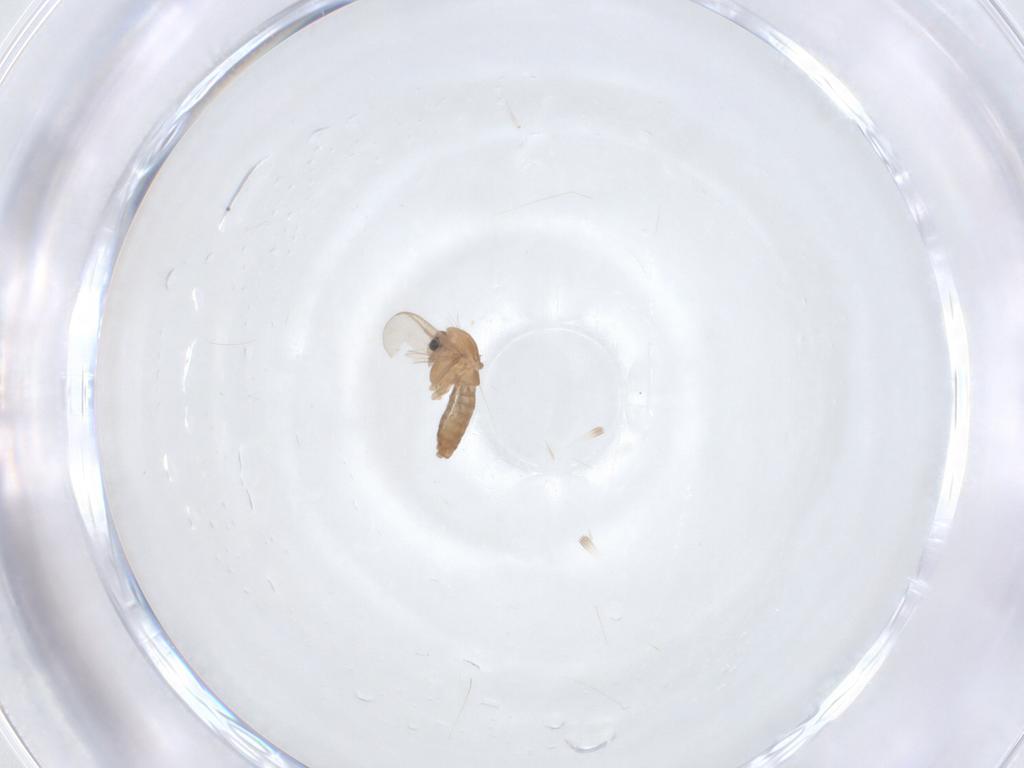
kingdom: Animalia
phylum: Arthropoda
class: Insecta
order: Diptera
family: Chironomidae
